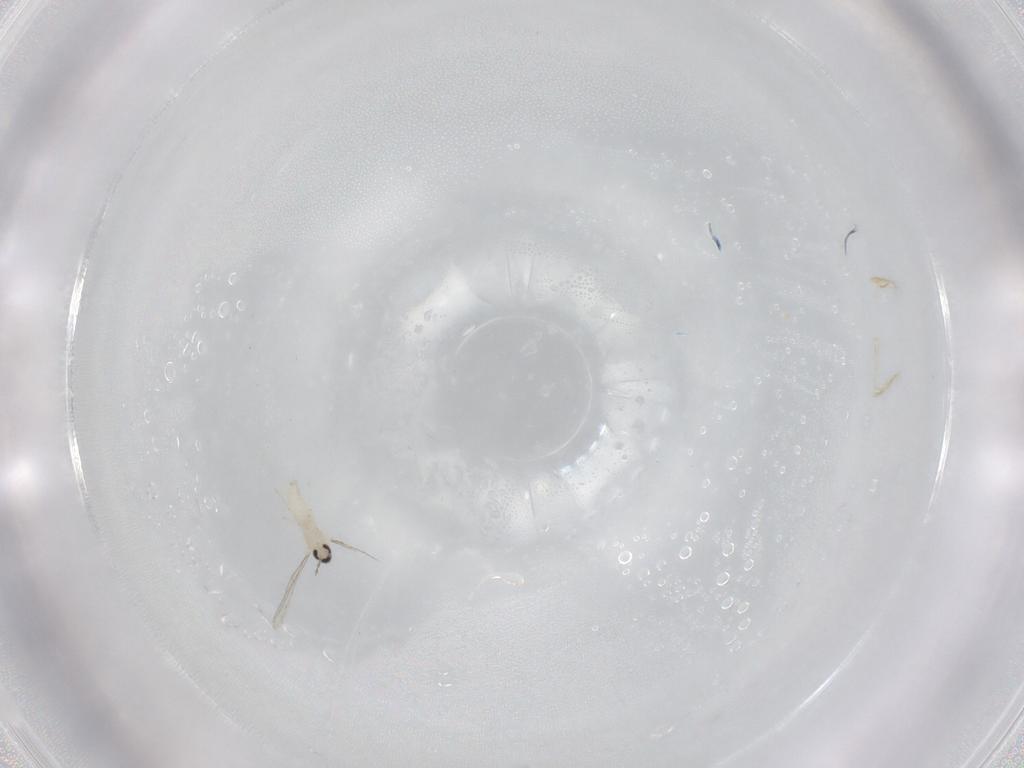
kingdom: Animalia
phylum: Arthropoda
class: Insecta
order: Diptera
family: Cecidomyiidae
